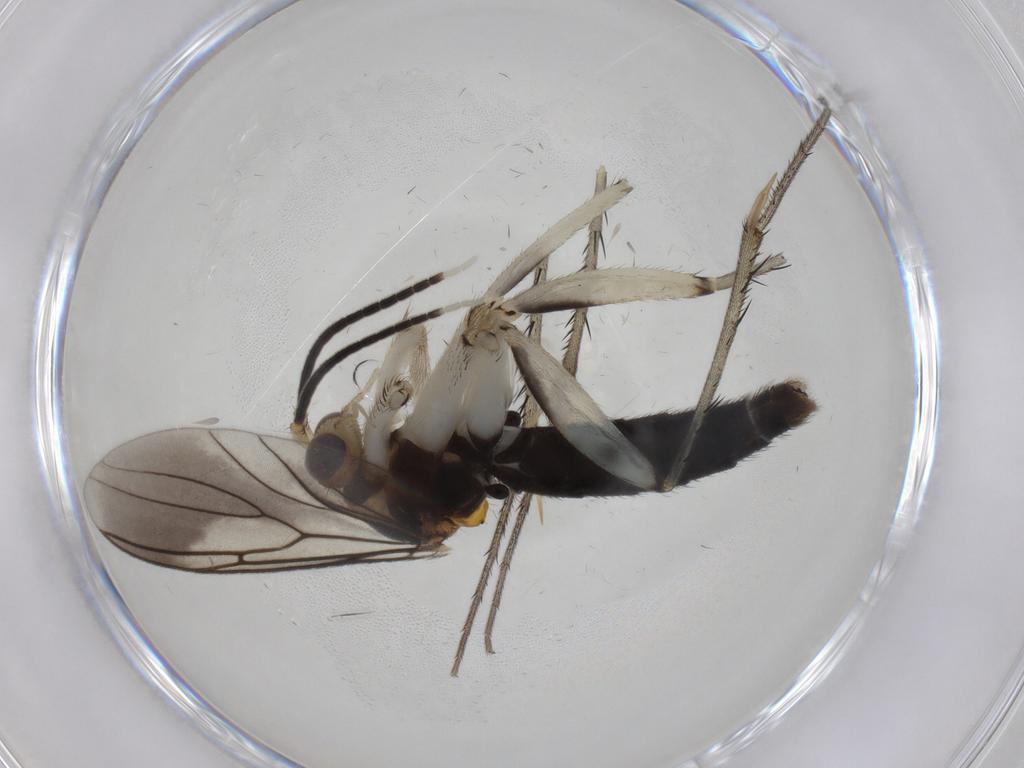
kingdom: Animalia
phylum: Arthropoda
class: Insecta
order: Diptera
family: Mycetophilidae
